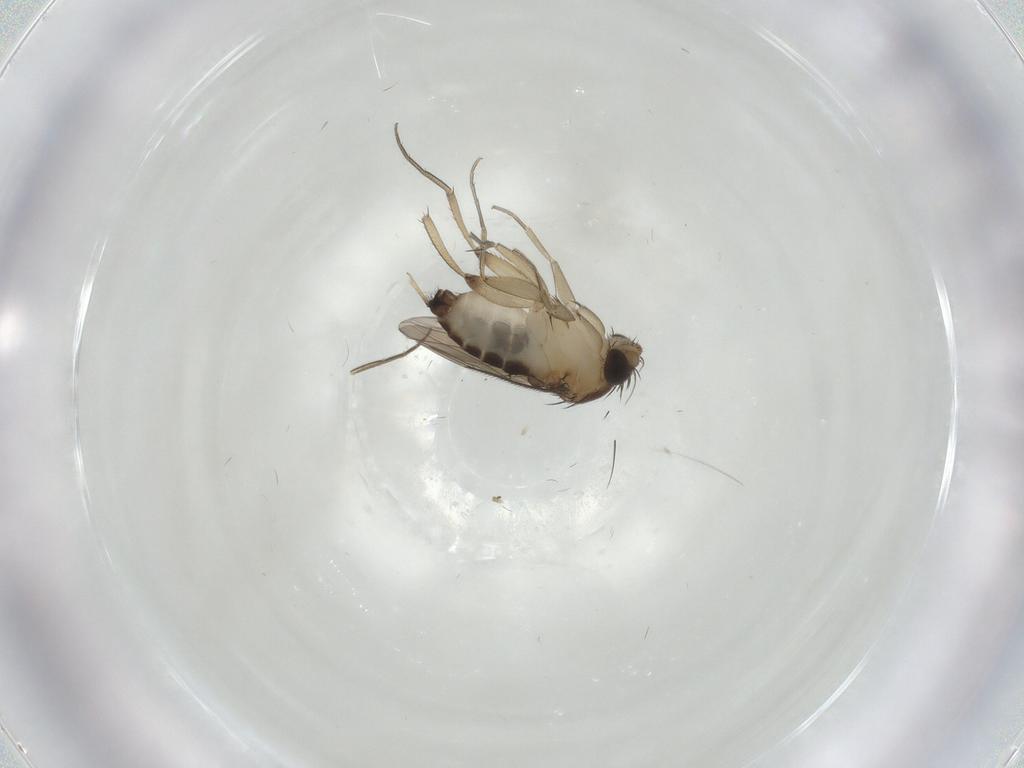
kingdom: Animalia
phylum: Arthropoda
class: Insecta
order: Diptera
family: Phoridae
